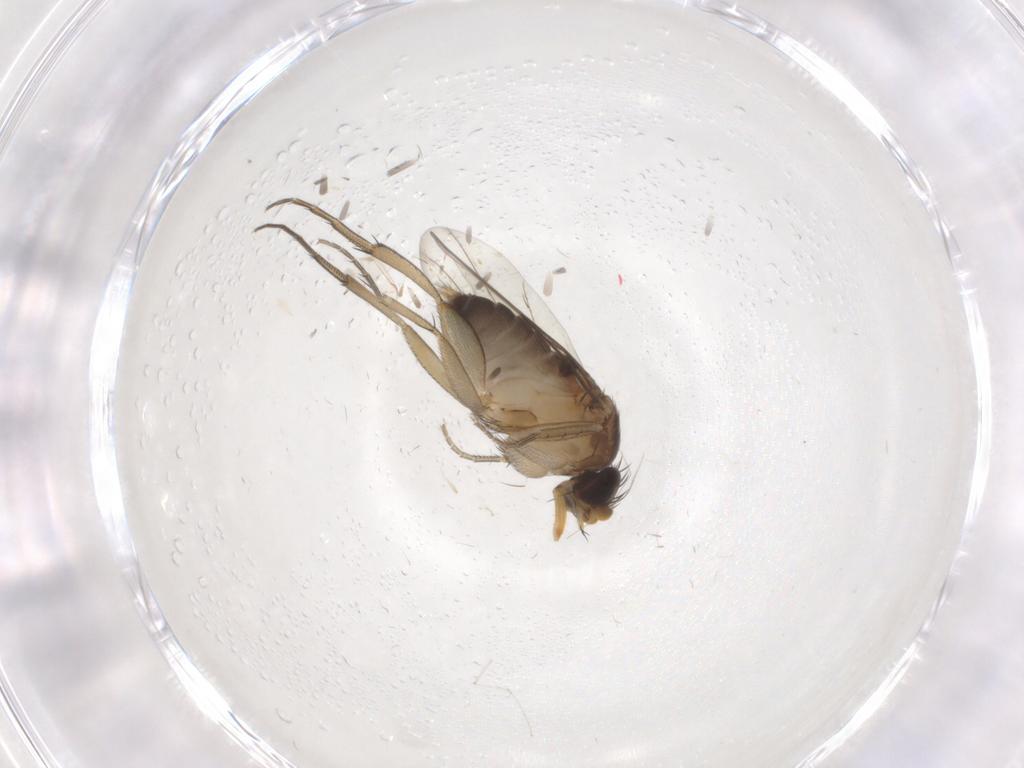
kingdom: Animalia
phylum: Arthropoda
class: Insecta
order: Diptera
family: Phoridae
